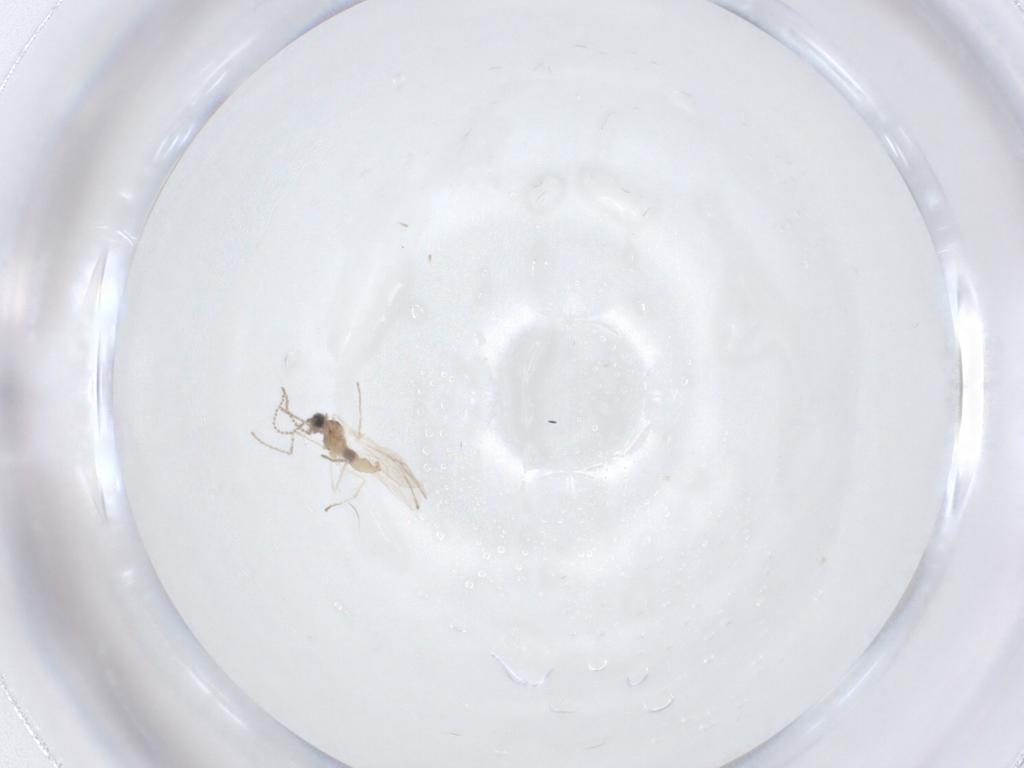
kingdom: Animalia
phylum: Arthropoda
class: Insecta
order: Diptera
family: Cecidomyiidae
